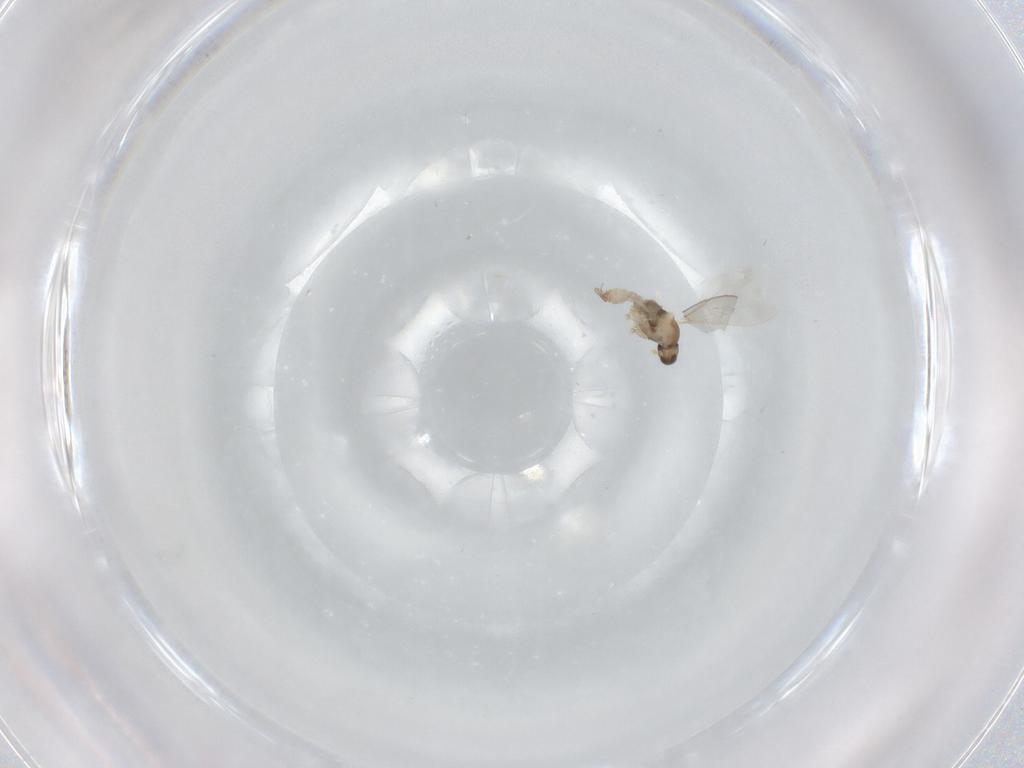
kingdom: Animalia
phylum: Arthropoda
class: Insecta
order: Diptera
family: Cecidomyiidae
